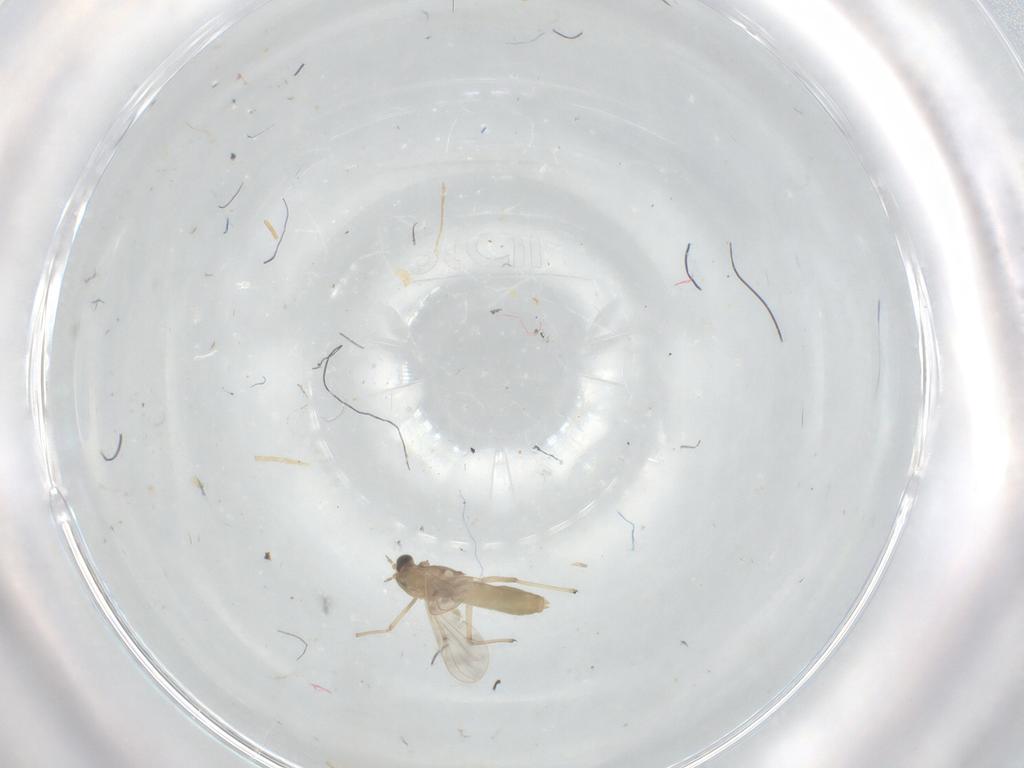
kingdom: Animalia
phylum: Arthropoda
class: Insecta
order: Diptera
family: Chironomidae
